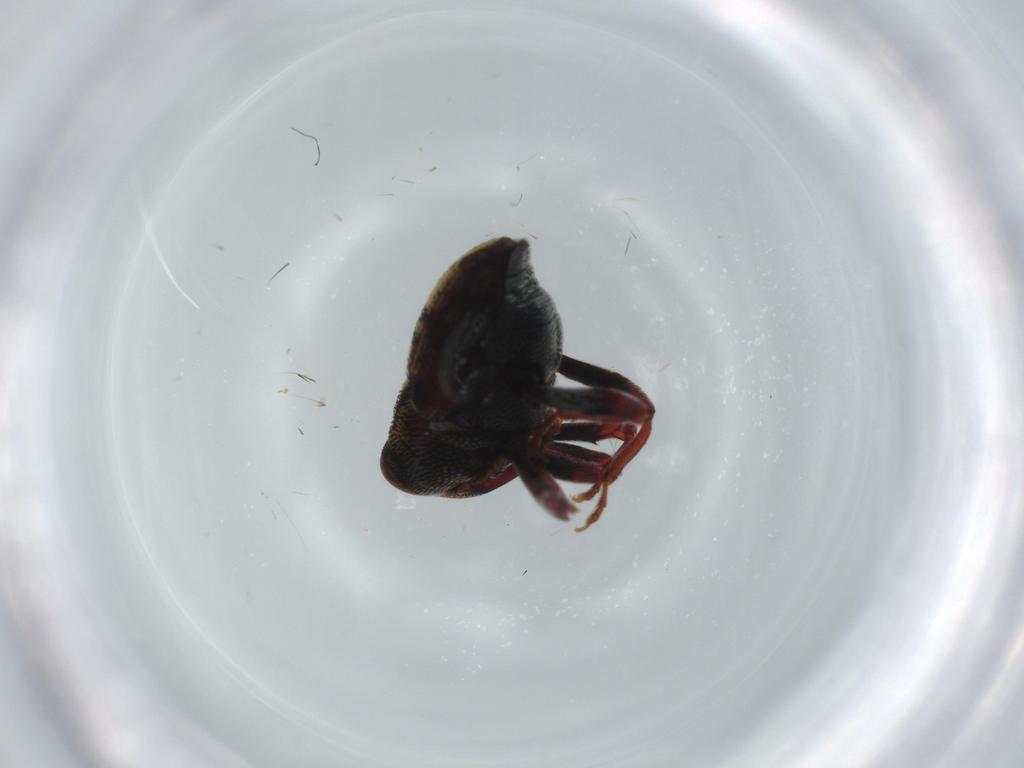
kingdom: Animalia
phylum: Arthropoda
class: Insecta
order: Coleoptera
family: Curculionidae
